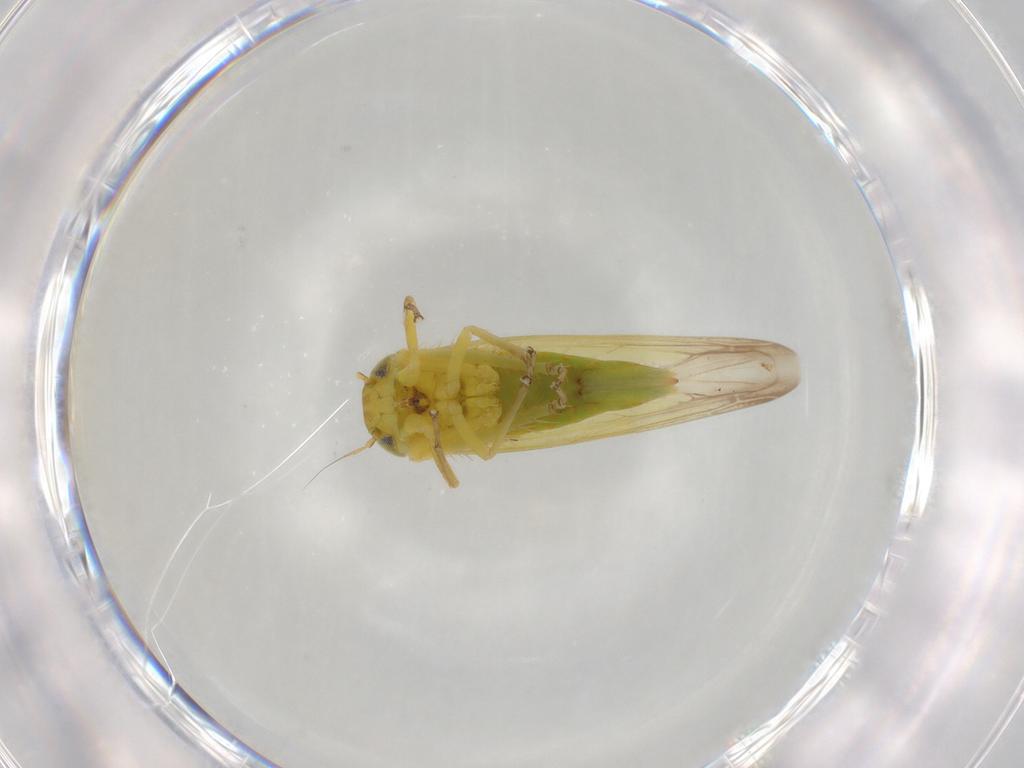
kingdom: Animalia
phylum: Arthropoda
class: Insecta
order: Hemiptera
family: Cicadellidae
